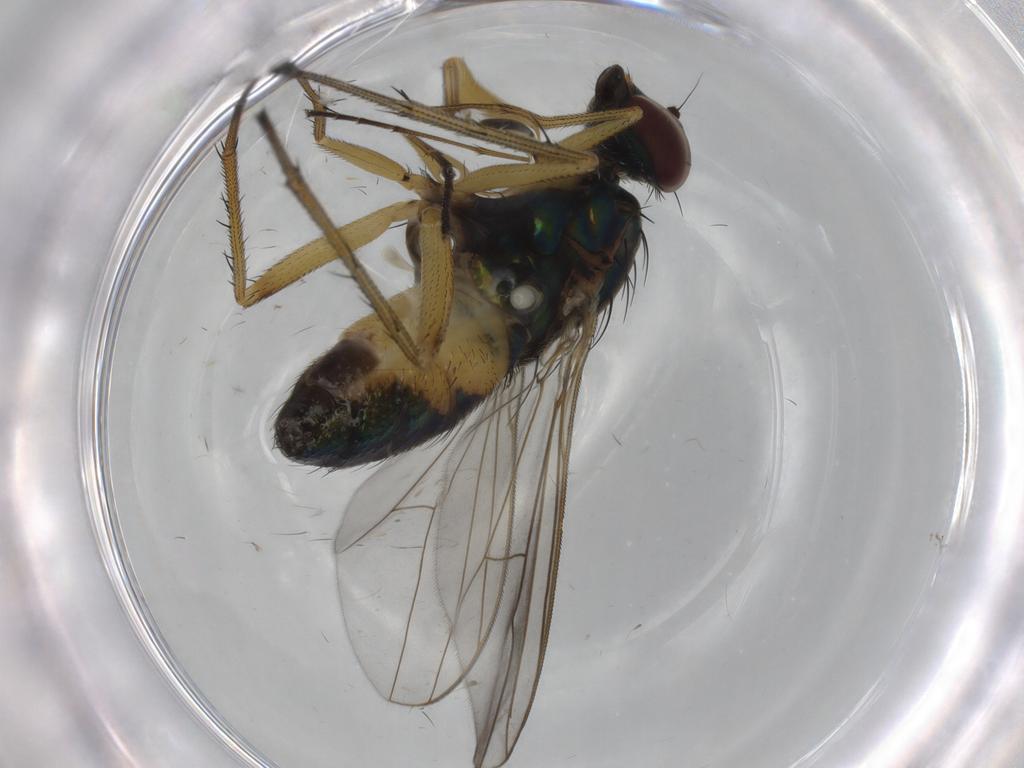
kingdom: Animalia
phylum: Arthropoda
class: Insecta
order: Diptera
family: Dolichopodidae
